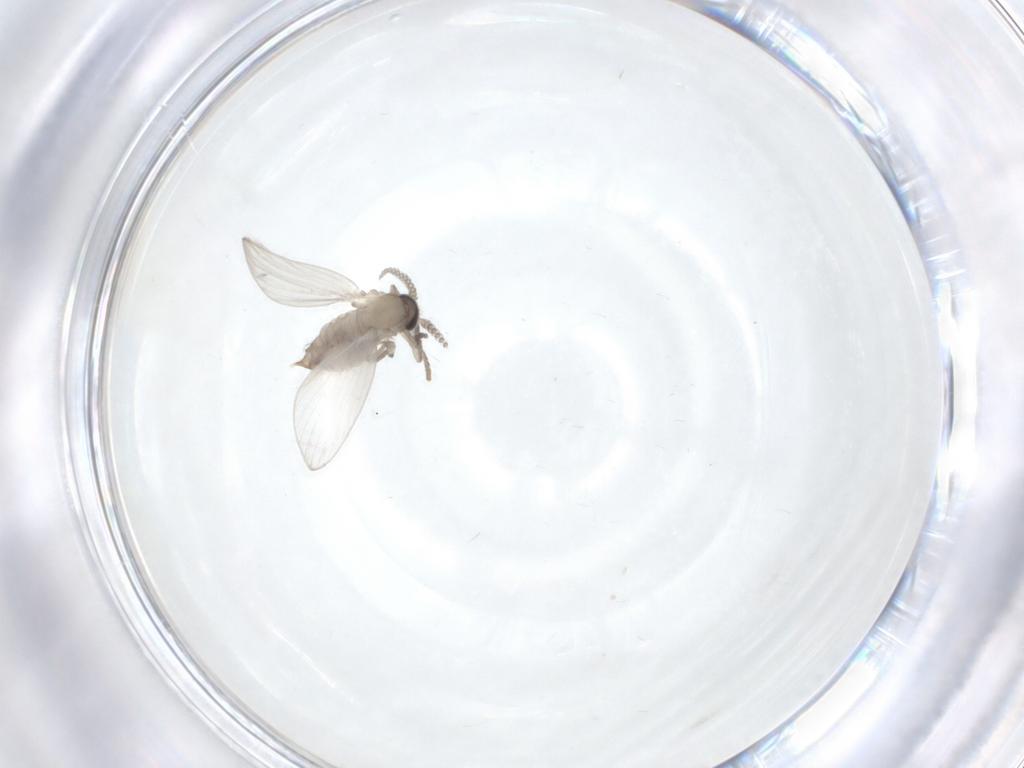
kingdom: Animalia
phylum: Arthropoda
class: Insecta
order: Diptera
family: Psychodidae
